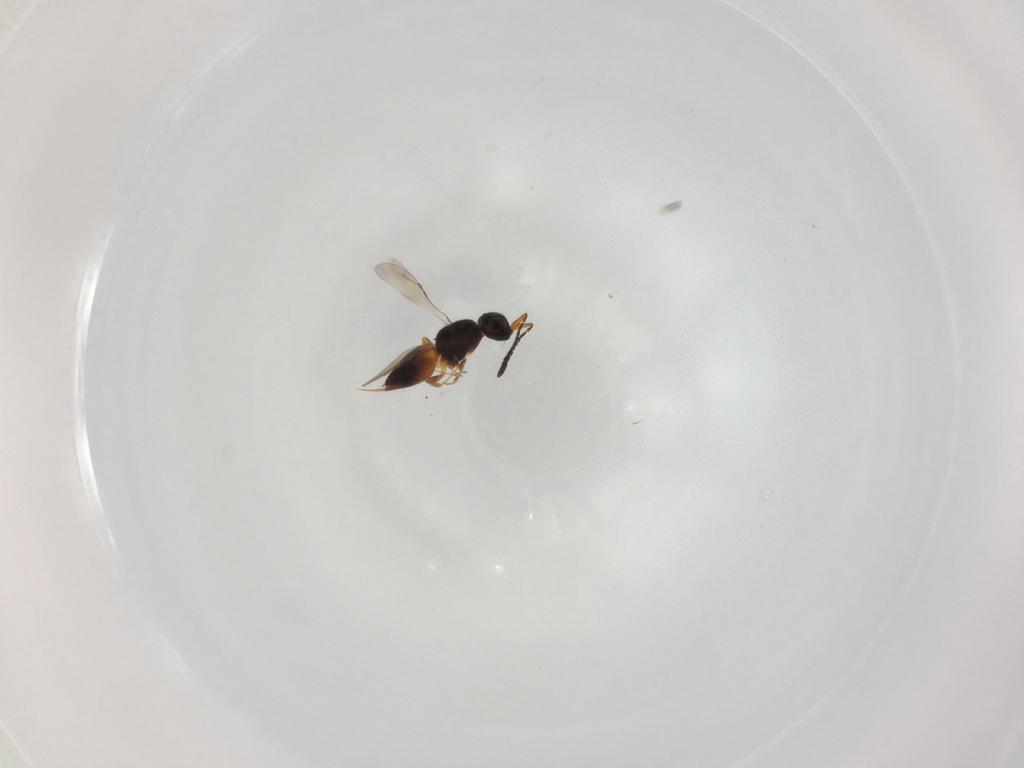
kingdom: Animalia
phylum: Arthropoda
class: Insecta
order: Hymenoptera
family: Scelionidae
